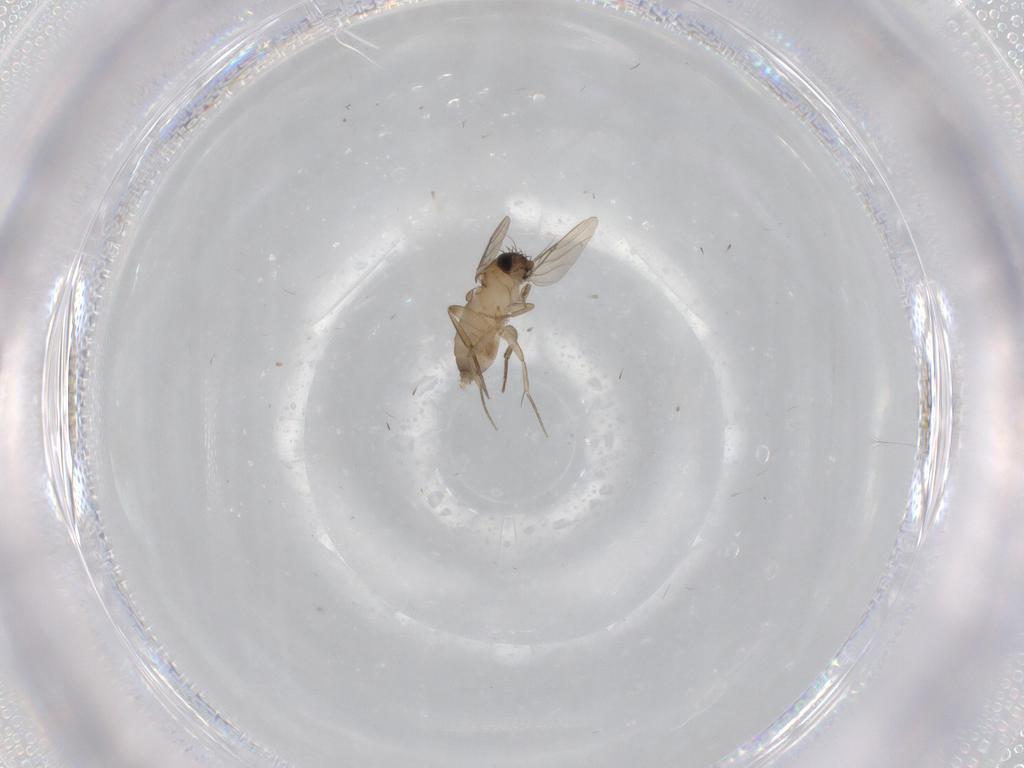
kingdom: Animalia
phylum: Arthropoda
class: Insecta
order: Diptera
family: Phoridae
